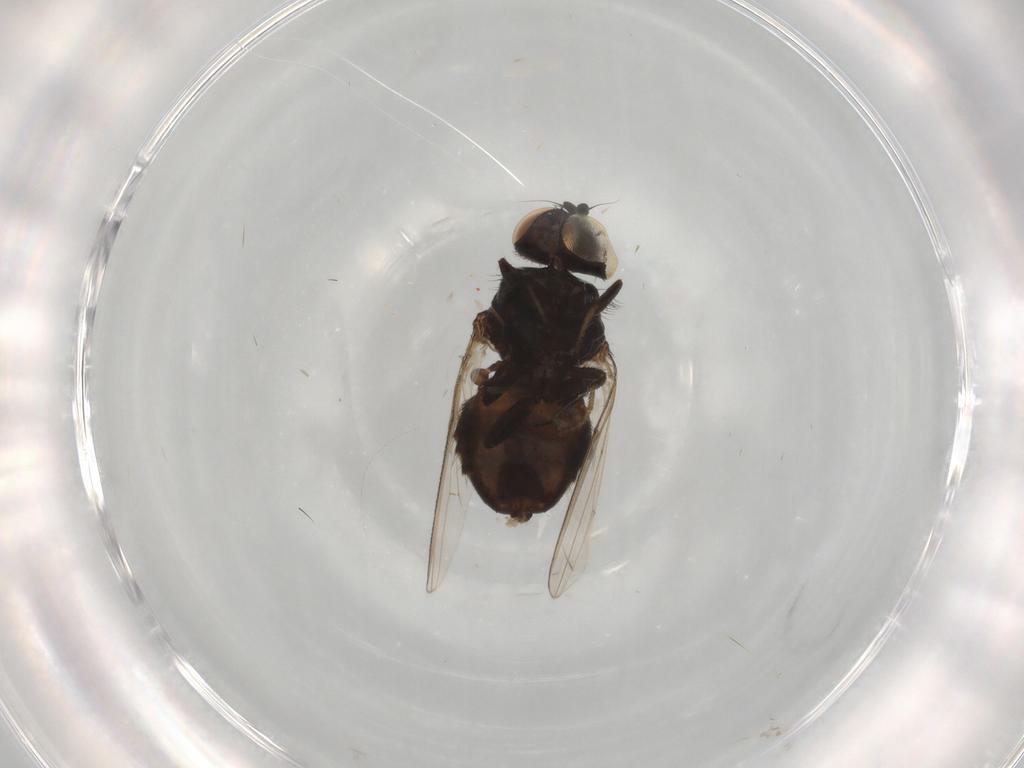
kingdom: Animalia
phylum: Arthropoda
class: Insecta
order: Diptera
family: Milichiidae
